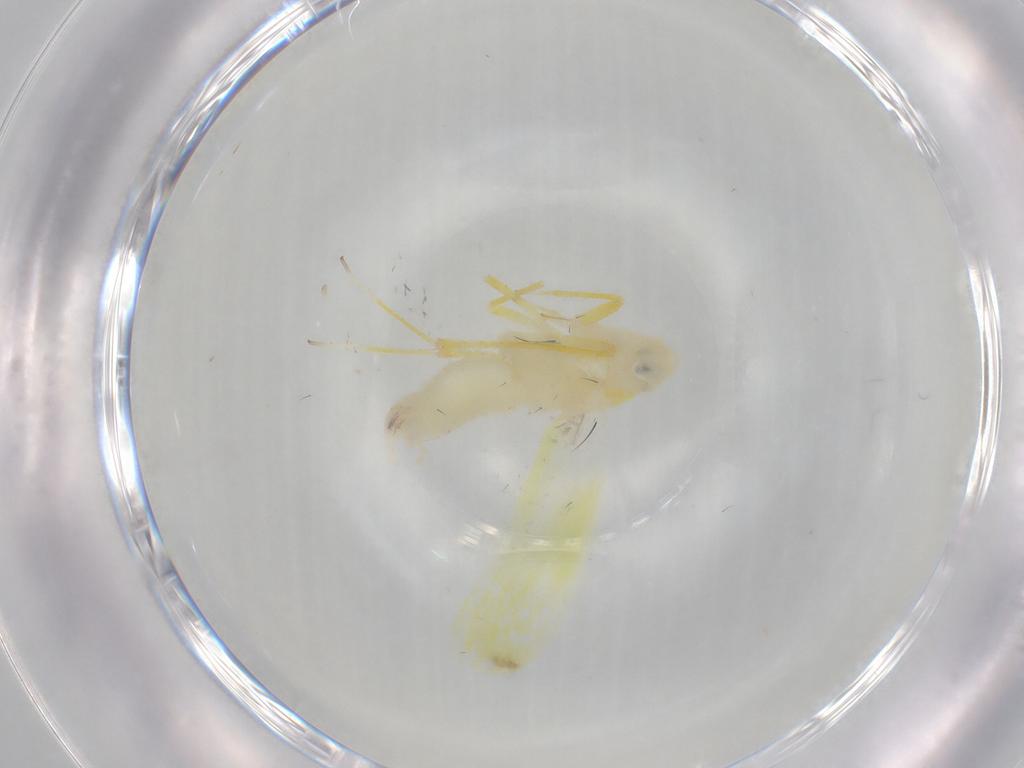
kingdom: Animalia
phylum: Arthropoda
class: Insecta
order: Hemiptera
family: Cicadellidae
